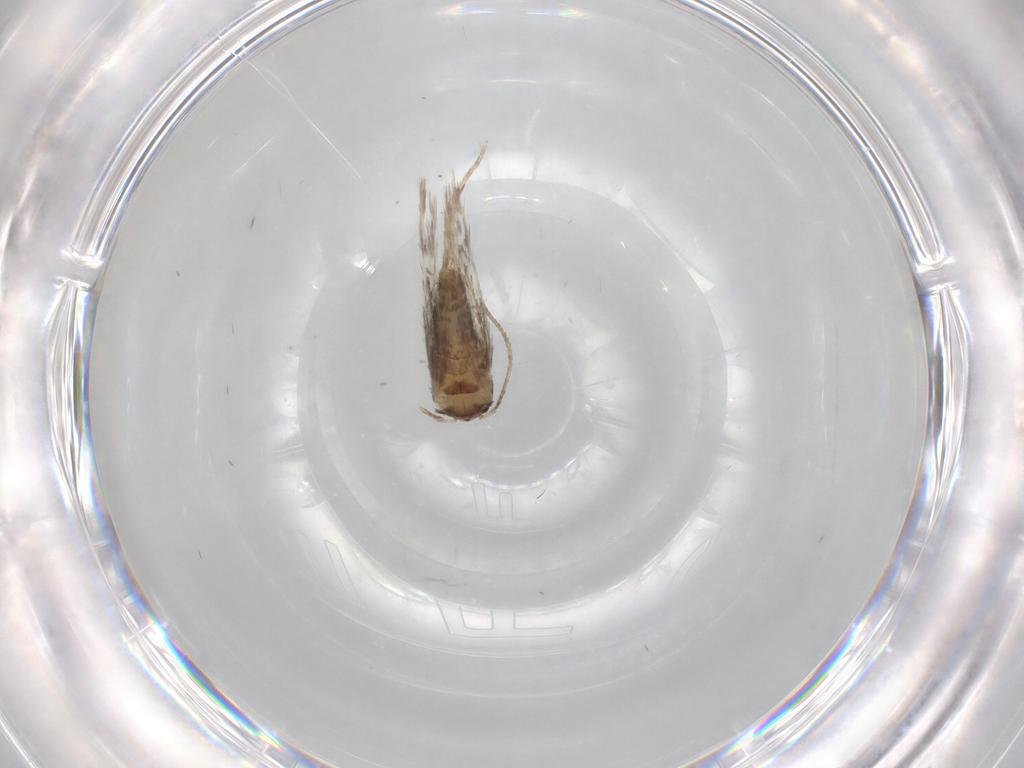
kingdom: Animalia
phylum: Arthropoda
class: Insecta
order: Lepidoptera
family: Nepticulidae
